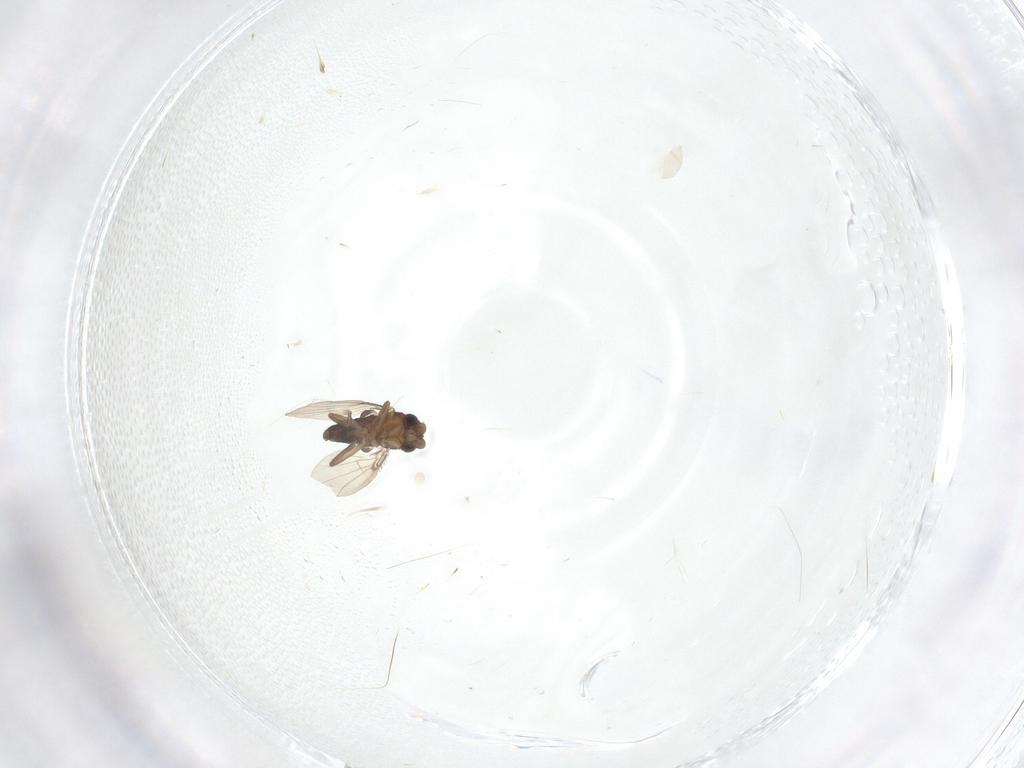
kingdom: Animalia
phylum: Arthropoda
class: Insecta
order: Diptera
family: Phoridae
